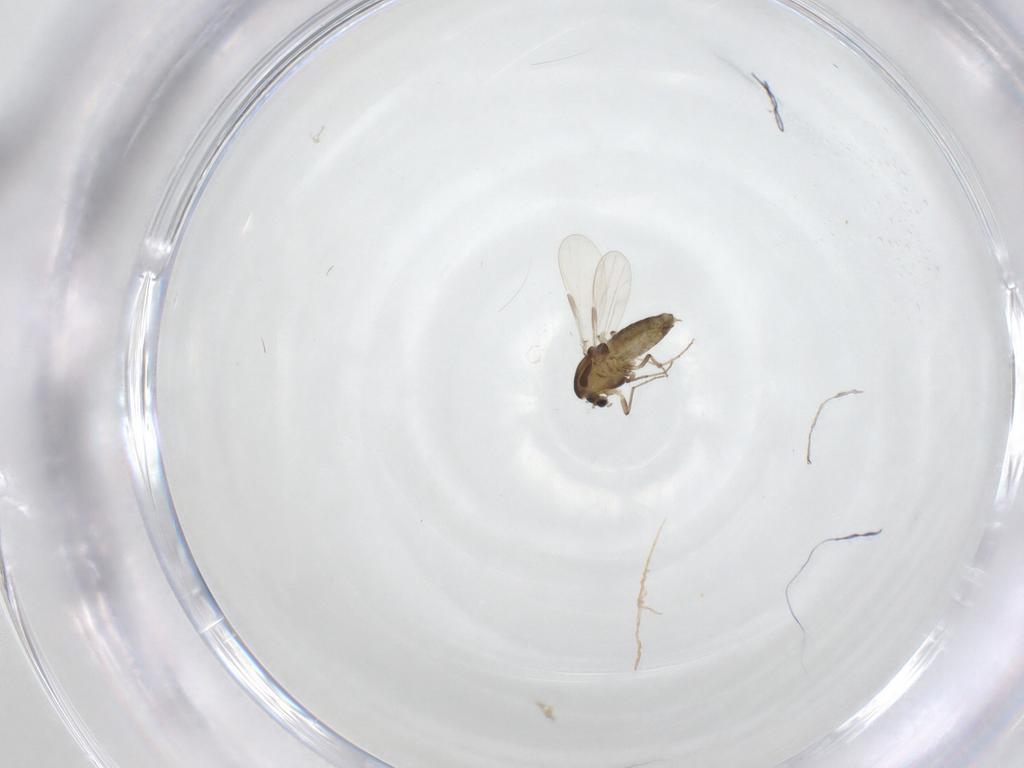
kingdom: Animalia
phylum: Arthropoda
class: Insecta
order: Diptera
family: Chironomidae
